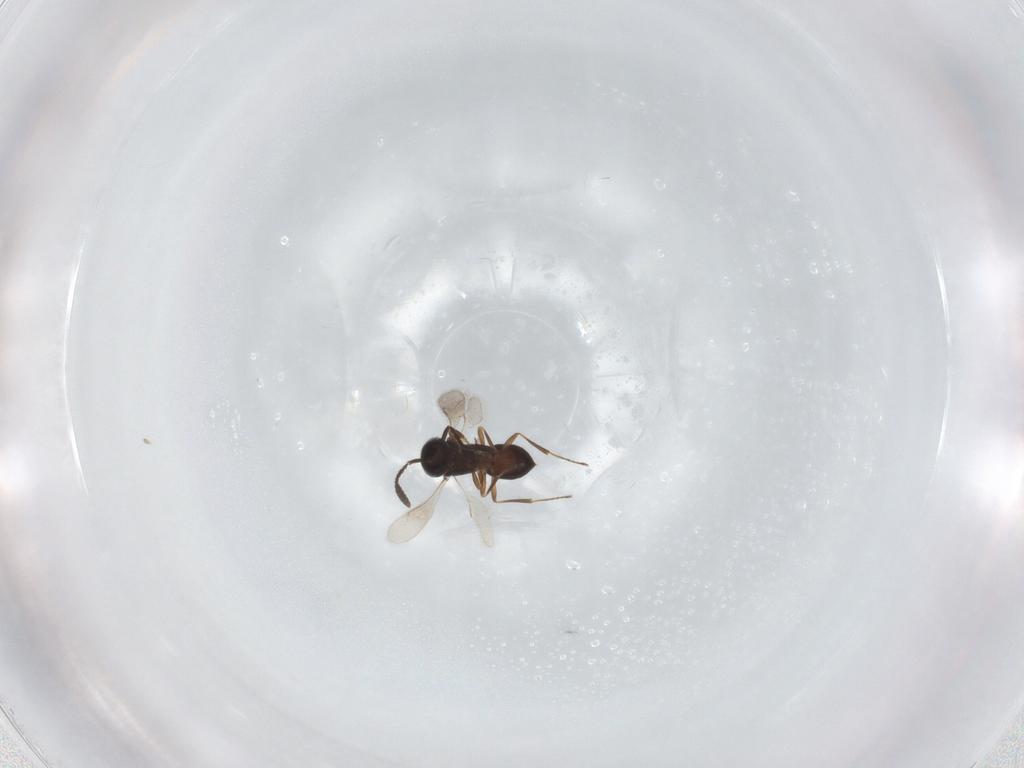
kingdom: Animalia
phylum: Arthropoda
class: Insecta
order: Hymenoptera
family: Scelionidae
